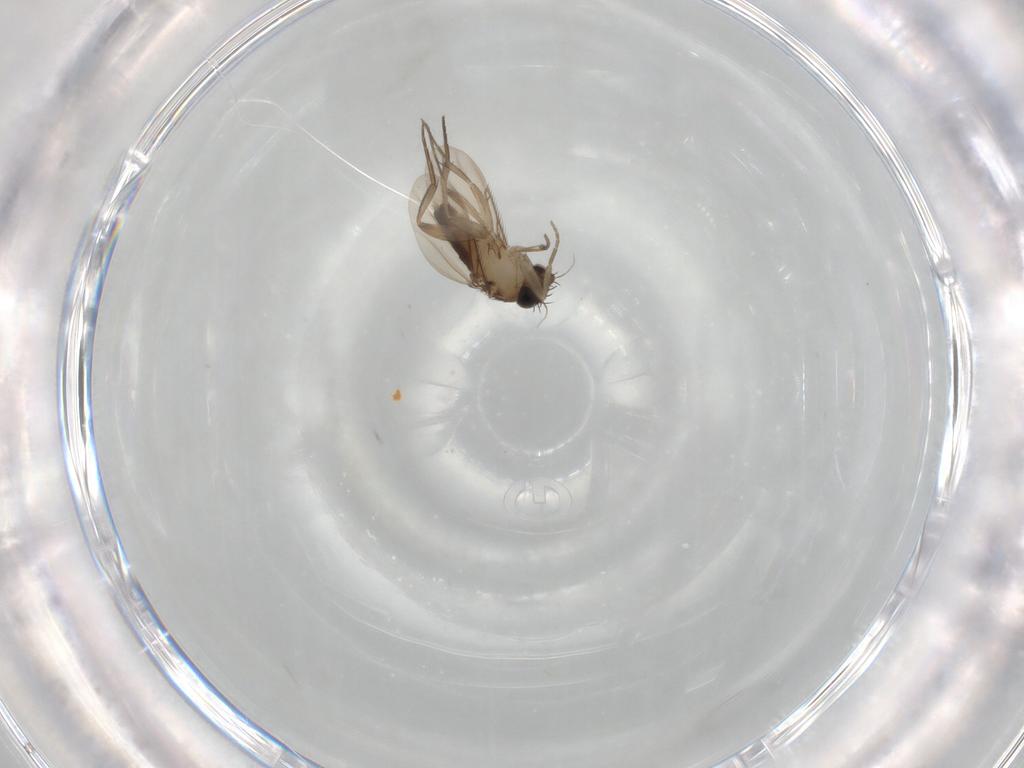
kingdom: Animalia
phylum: Arthropoda
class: Insecta
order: Diptera
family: Phoridae
